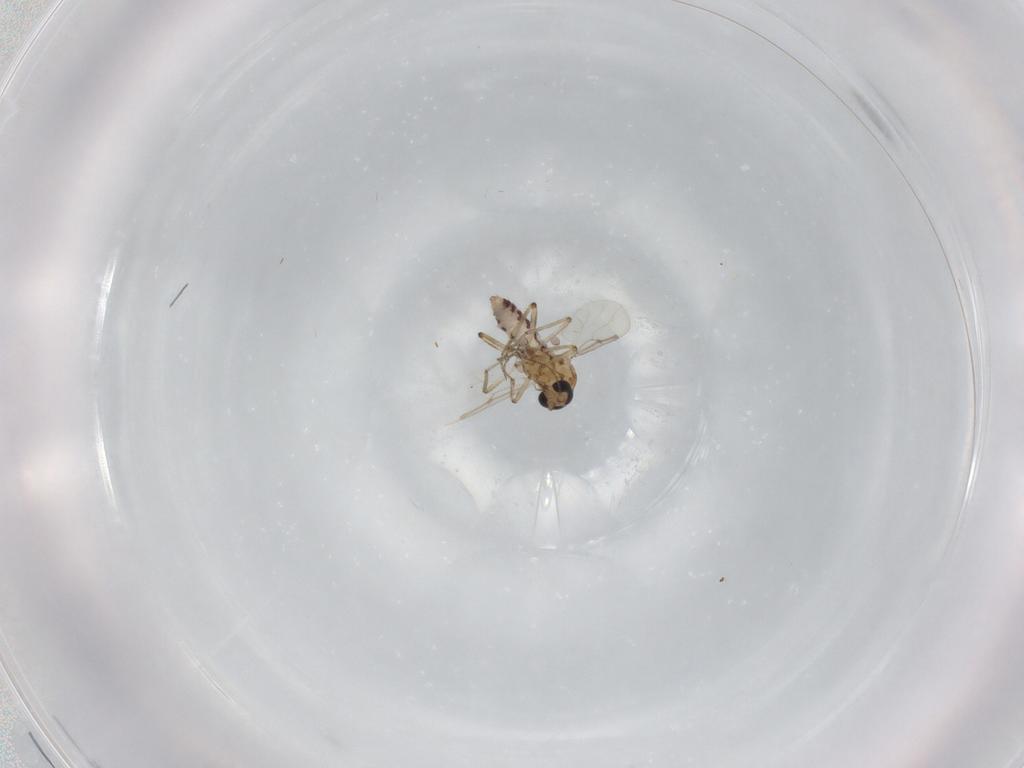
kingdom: Animalia
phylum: Arthropoda
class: Insecta
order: Diptera
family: Ceratopogonidae
